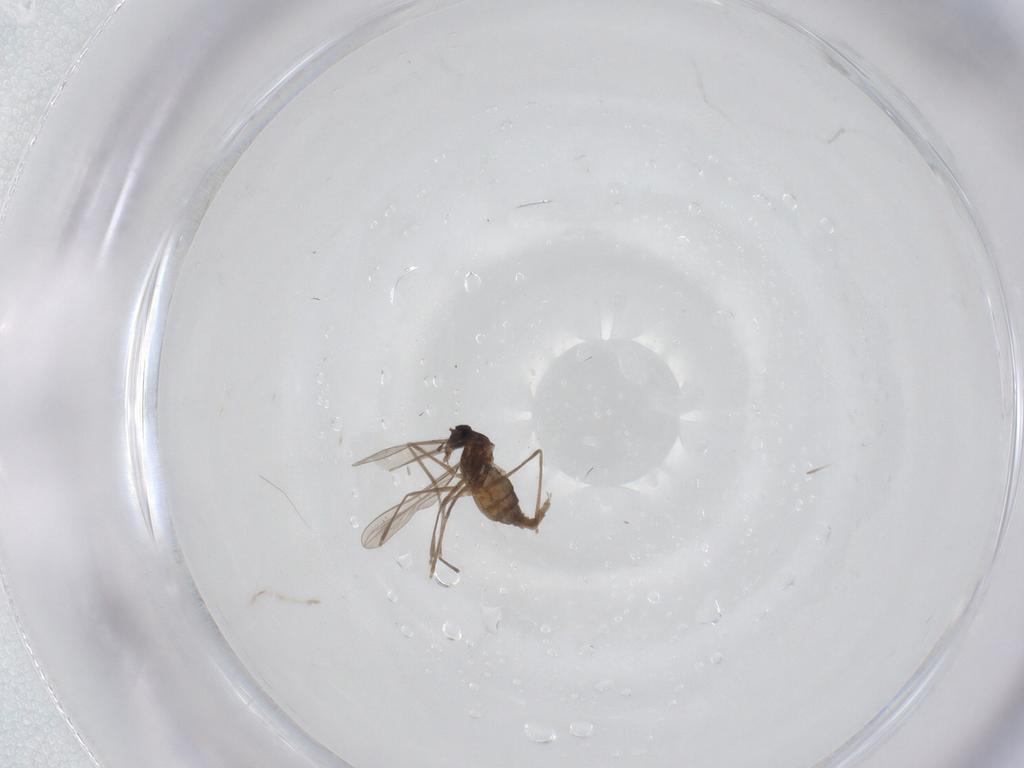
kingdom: Animalia
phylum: Arthropoda
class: Insecta
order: Diptera
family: Cecidomyiidae
